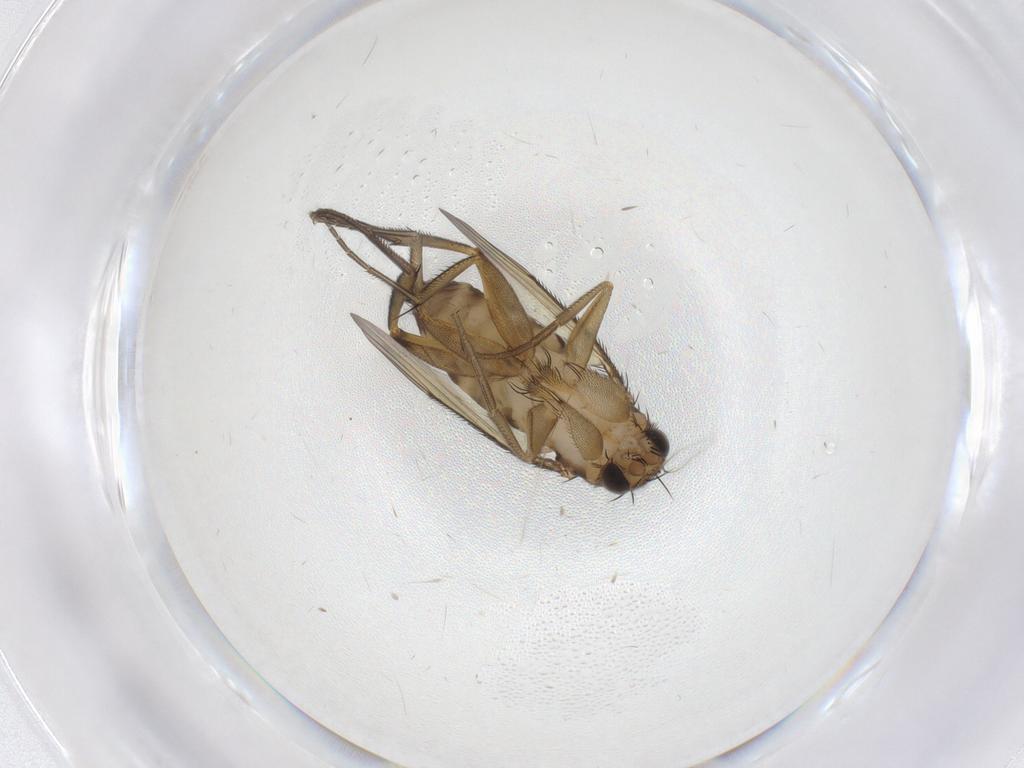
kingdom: Animalia
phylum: Arthropoda
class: Insecta
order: Diptera
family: Phoridae
